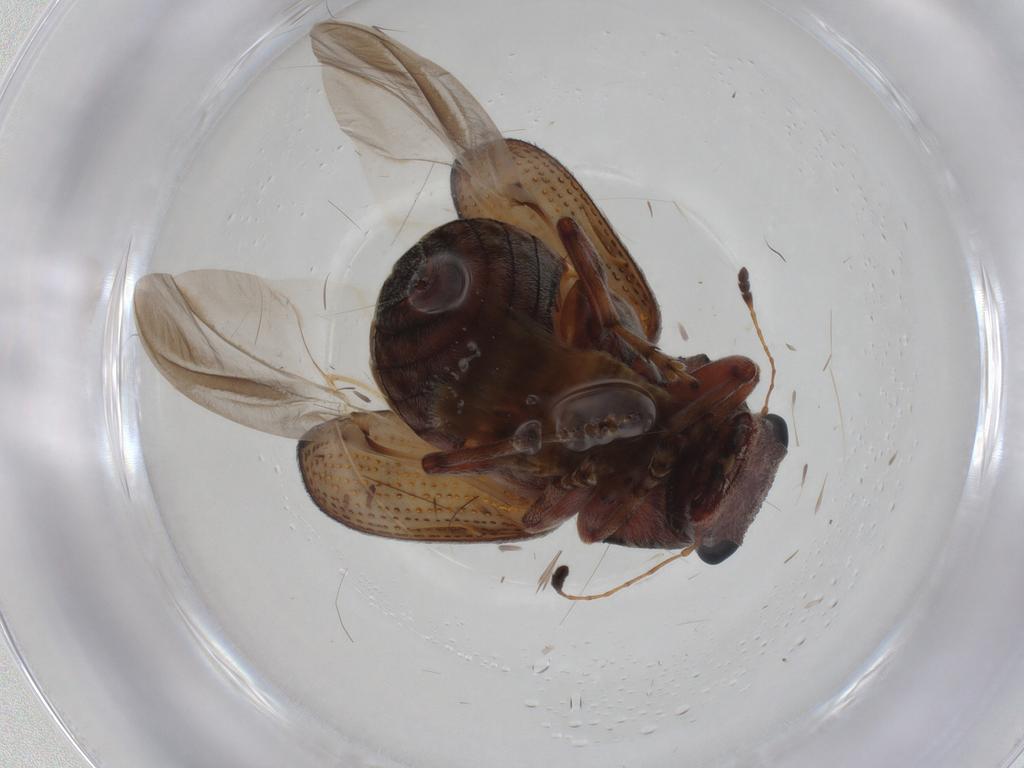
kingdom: Animalia
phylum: Arthropoda
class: Insecta
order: Coleoptera
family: Anthribidae
